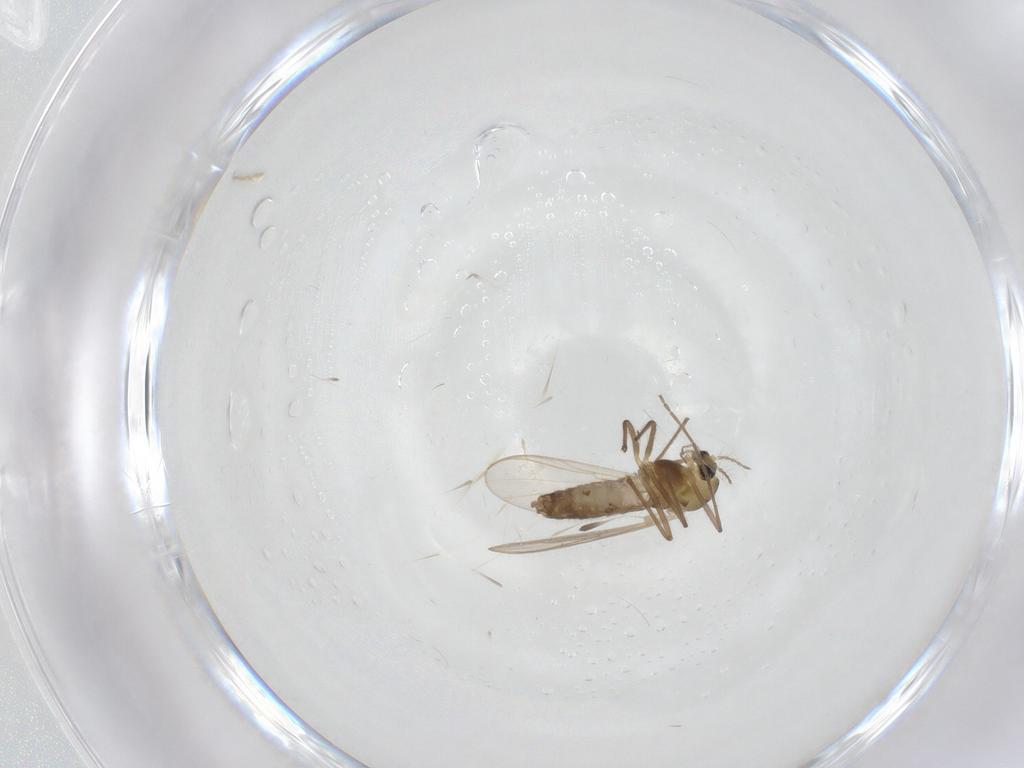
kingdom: Animalia
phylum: Arthropoda
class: Insecta
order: Diptera
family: Chironomidae
